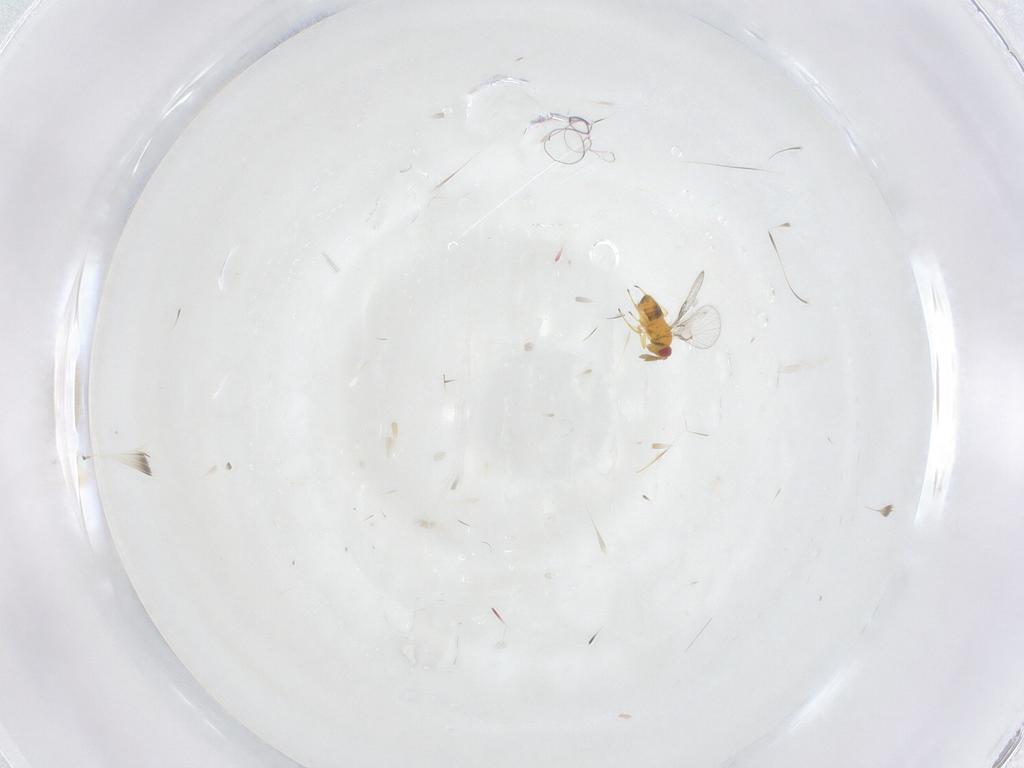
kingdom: Animalia
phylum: Arthropoda
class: Insecta
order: Hymenoptera
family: Trichogrammatidae
